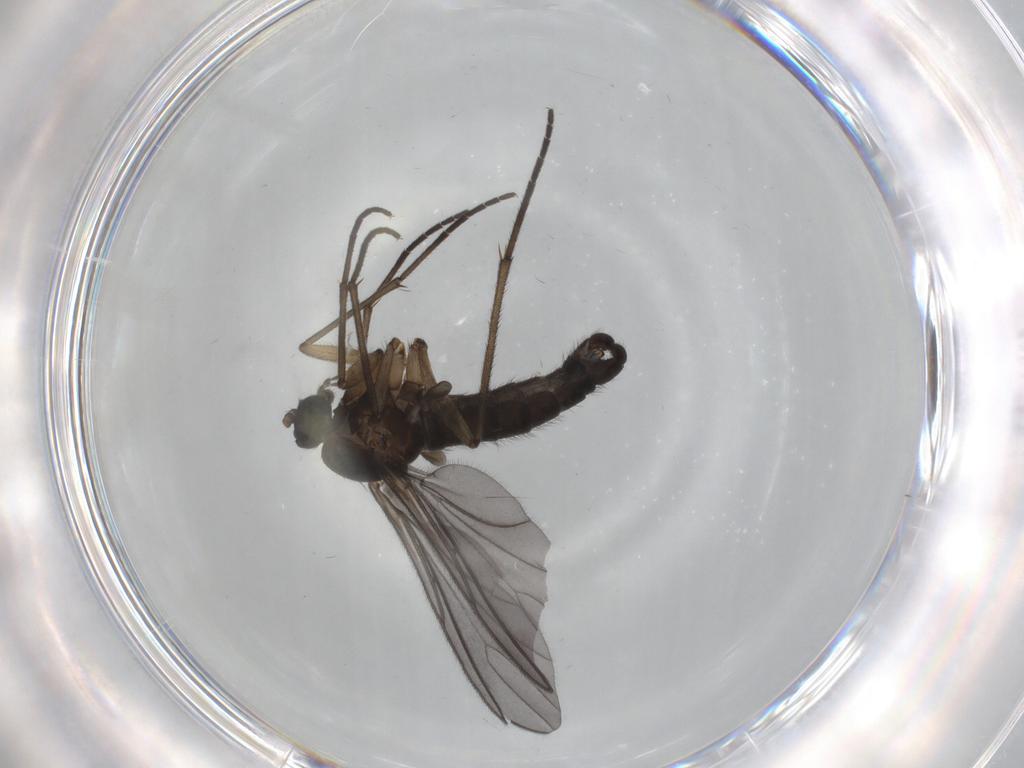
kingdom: Animalia
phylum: Arthropoda
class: Insecta
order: Diptera
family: Sciaridae
